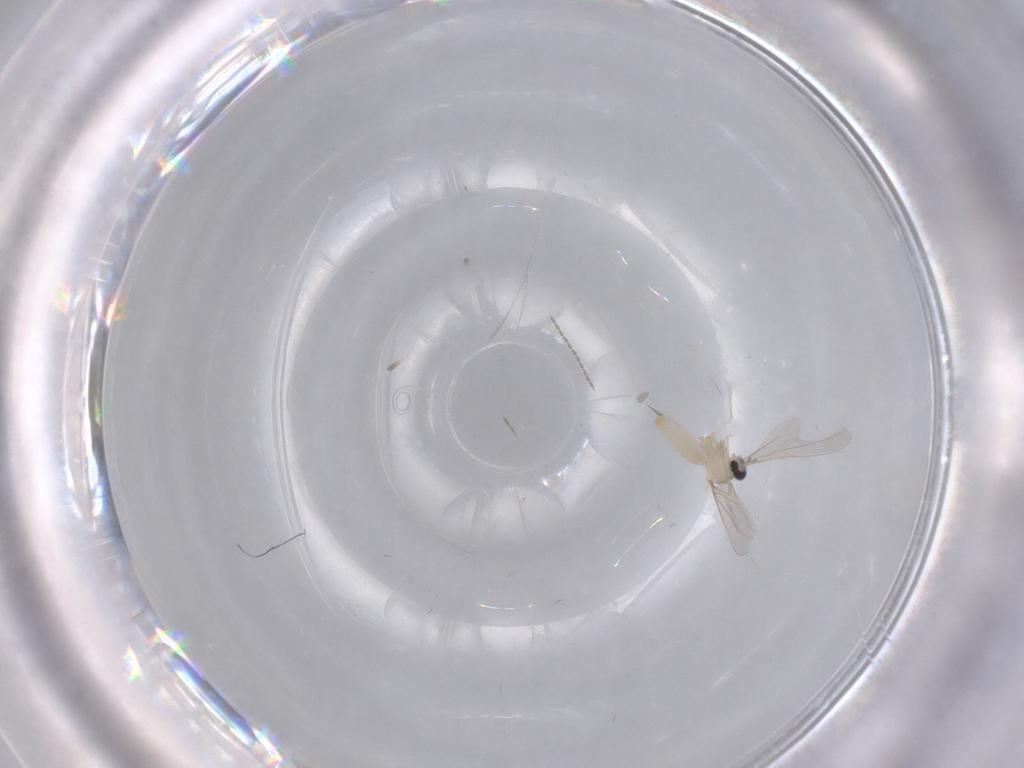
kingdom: Animalia
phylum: Arthropoda
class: Insecta
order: Diptera
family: Cecidomyiidae
